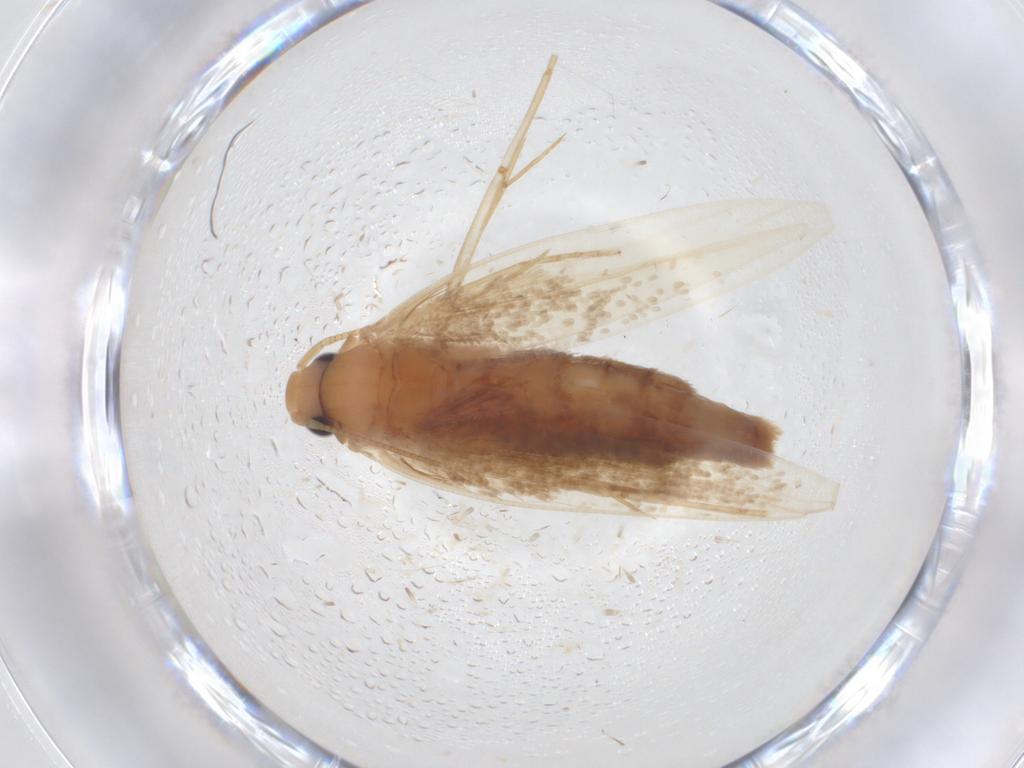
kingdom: Animalia
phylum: Arthropoda
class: Insecta
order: Lepidoptera
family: Tineidae
